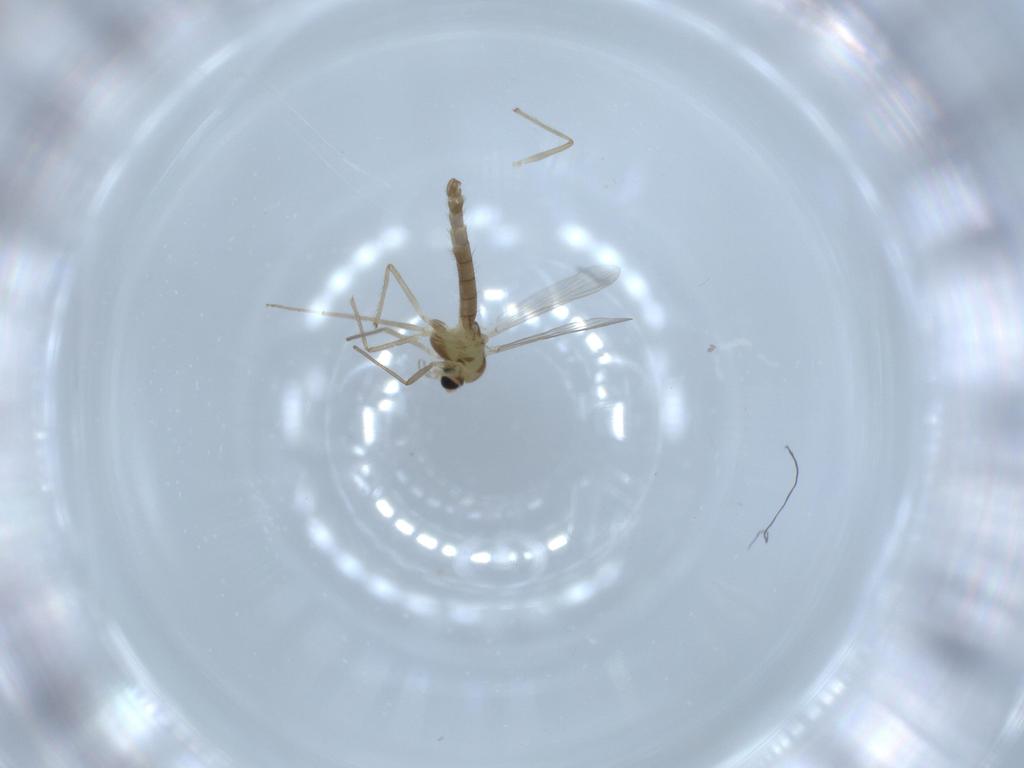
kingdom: Animalia
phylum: Arthropoda
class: Insecta
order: Diptera
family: Chironomidae
